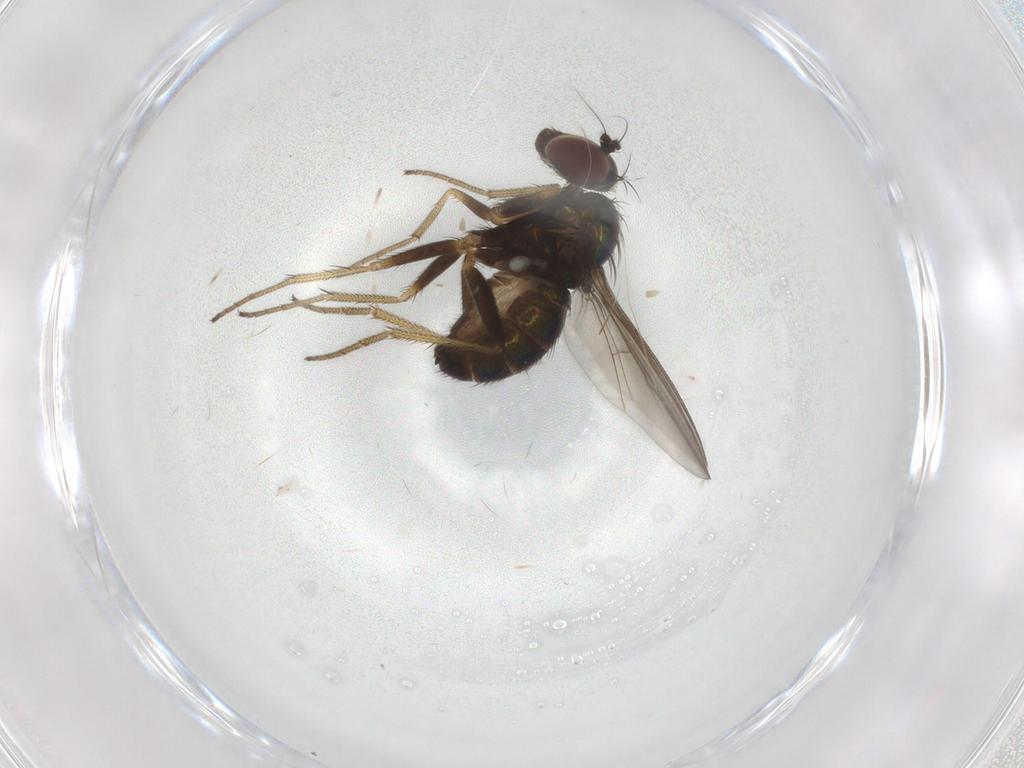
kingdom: Animalia
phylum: Arthropoda
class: Insecta
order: Diptera
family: Dolichopodidae
